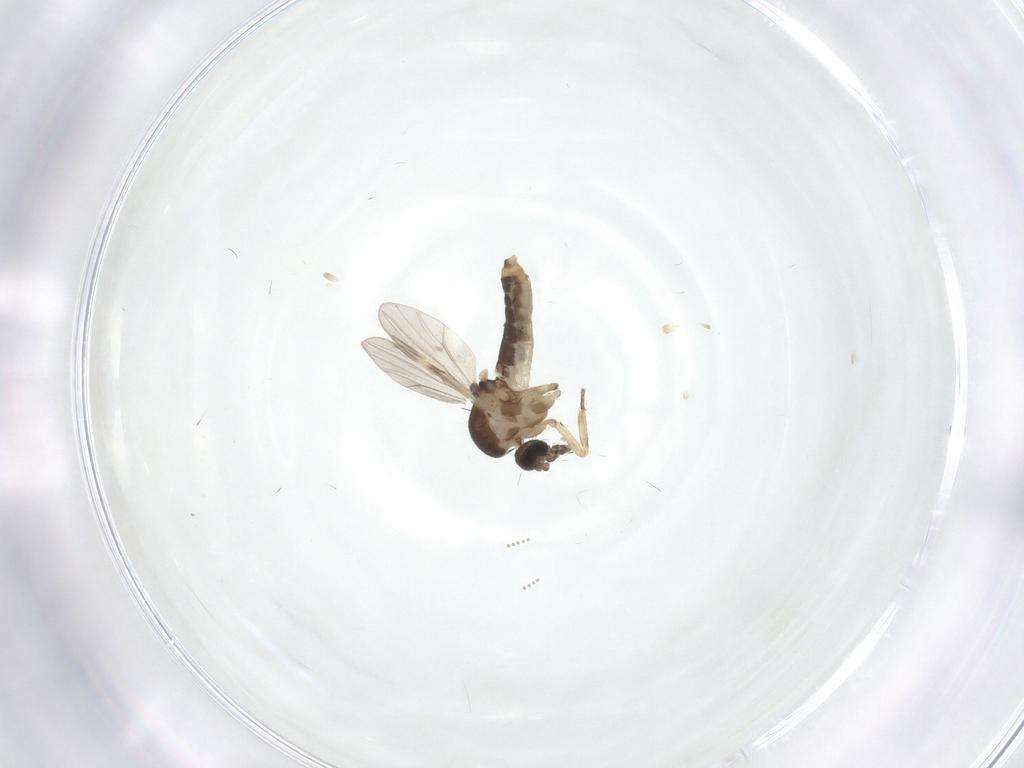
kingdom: Animalia
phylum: Arthropoda
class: Insecta
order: Diptera
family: Ceratopogonidae
